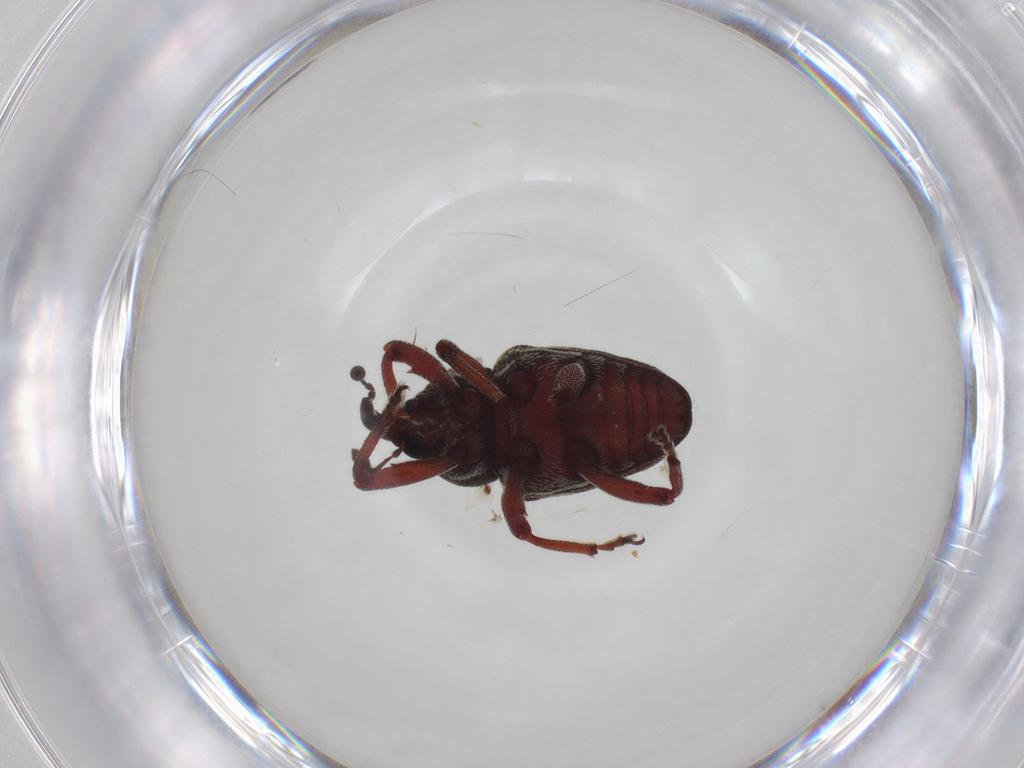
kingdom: Animalia
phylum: Arthropoda
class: Insecta
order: Coleoptera
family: Curculionidae
